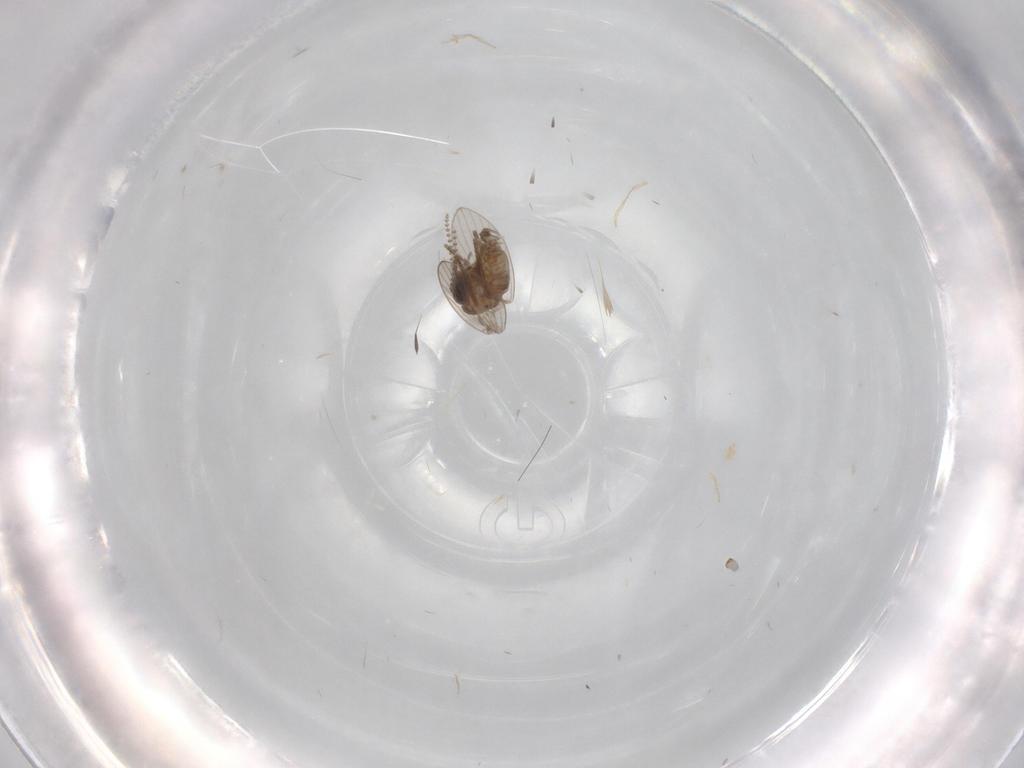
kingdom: Animalia
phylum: Arthropoda
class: Insecta
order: Diptera
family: Psychodidae
